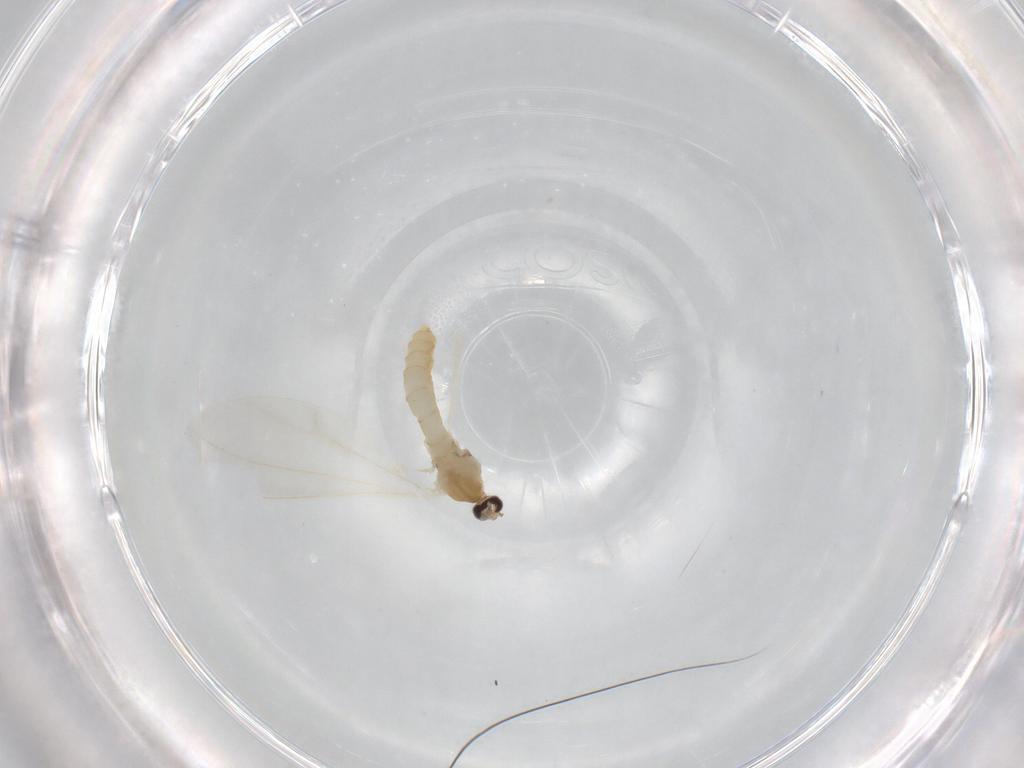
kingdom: Animalia
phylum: Arthropoda
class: Insecta
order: Diptera
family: Cecidomyiidae
